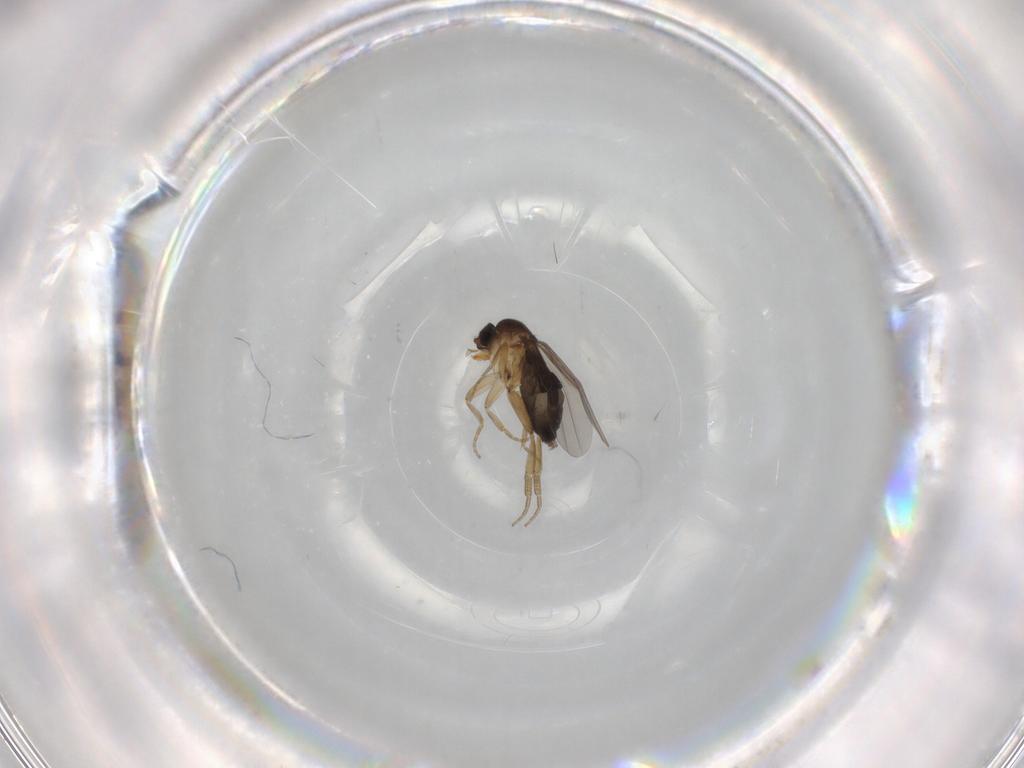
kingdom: Animalia
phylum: Arthropoda
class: Insecta
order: Diptera
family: Phoridae
